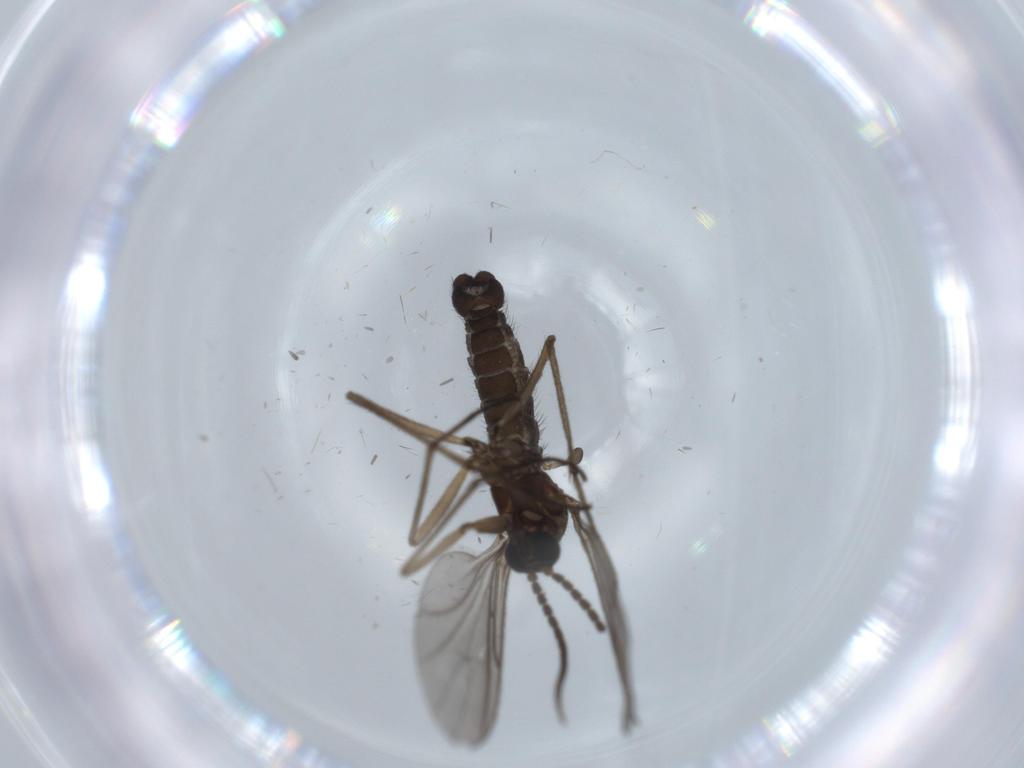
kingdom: Animalia
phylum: Arthropoda
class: Insecta
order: Diptera
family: Sciaridae
